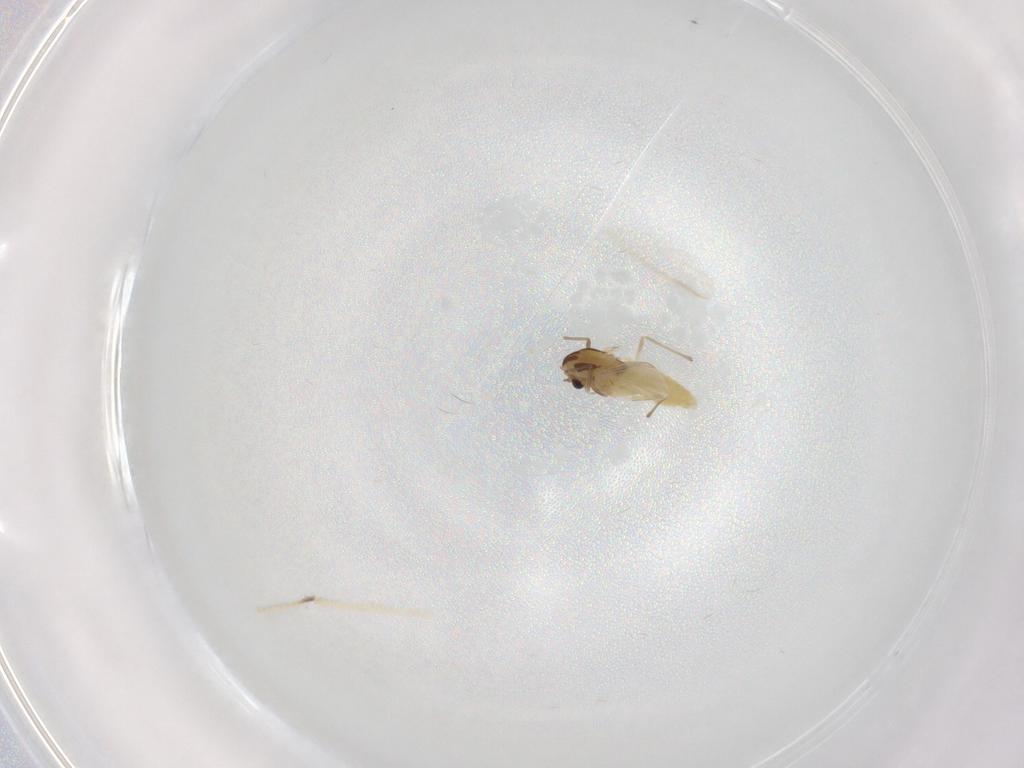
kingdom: Animalia
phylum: Arthropoda
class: Insecta
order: Diptera
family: Chironomidae
